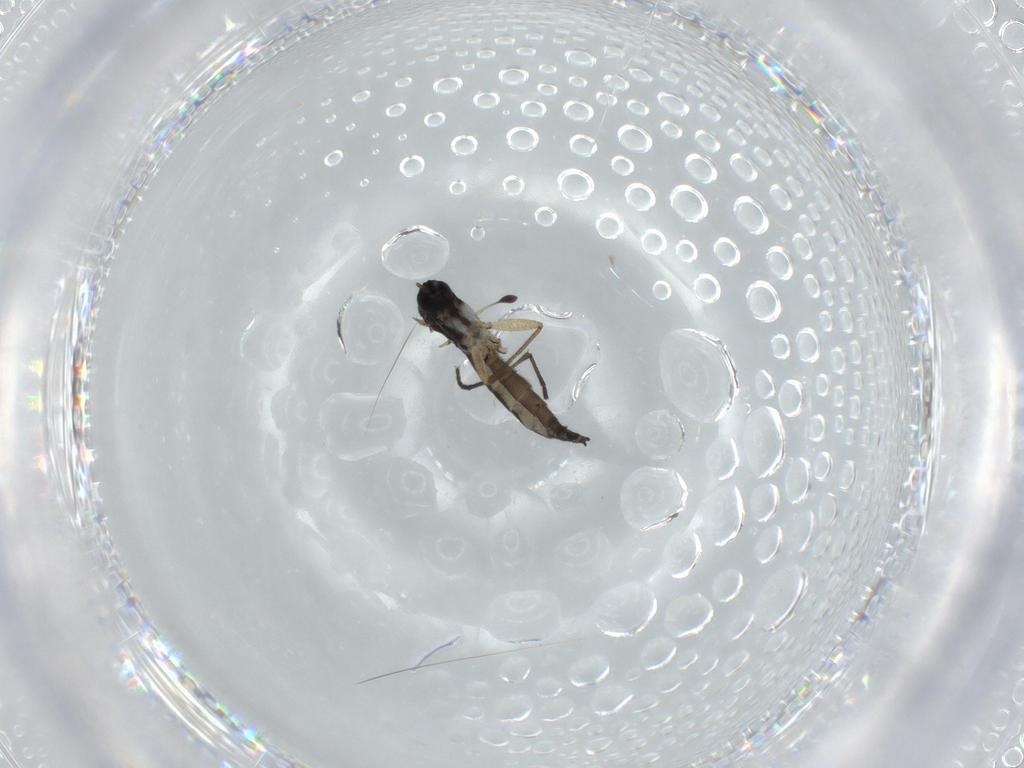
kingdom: Animalia
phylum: Arthropoda
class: Insecta
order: Diptera
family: Sciaridae
